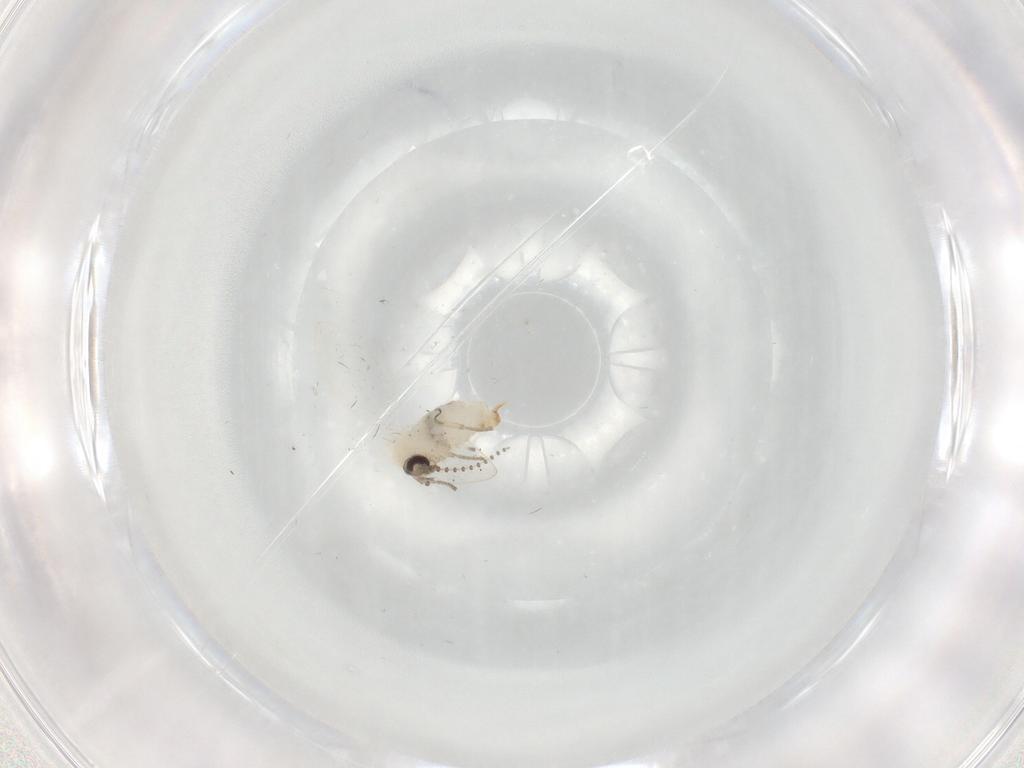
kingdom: Animalia
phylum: Arthropoda
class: Insecta
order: Diptera
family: Psychodidae
